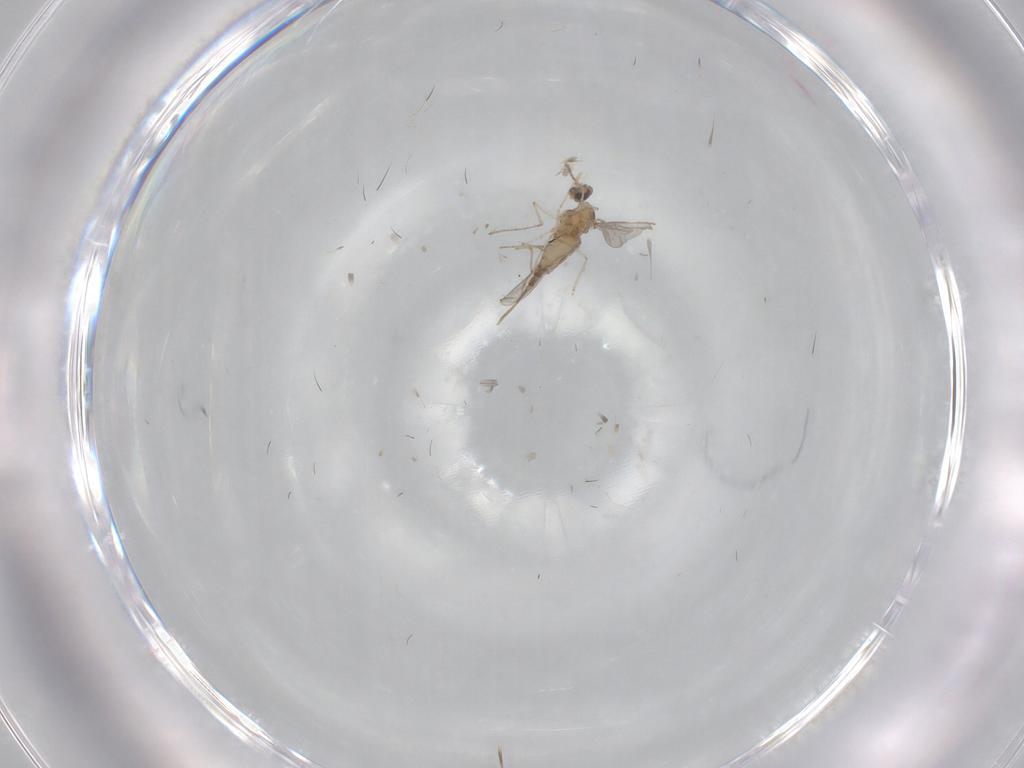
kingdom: Animalia
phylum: Arthropoda
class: Insecta
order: Diptera
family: Cecidomyiidae
